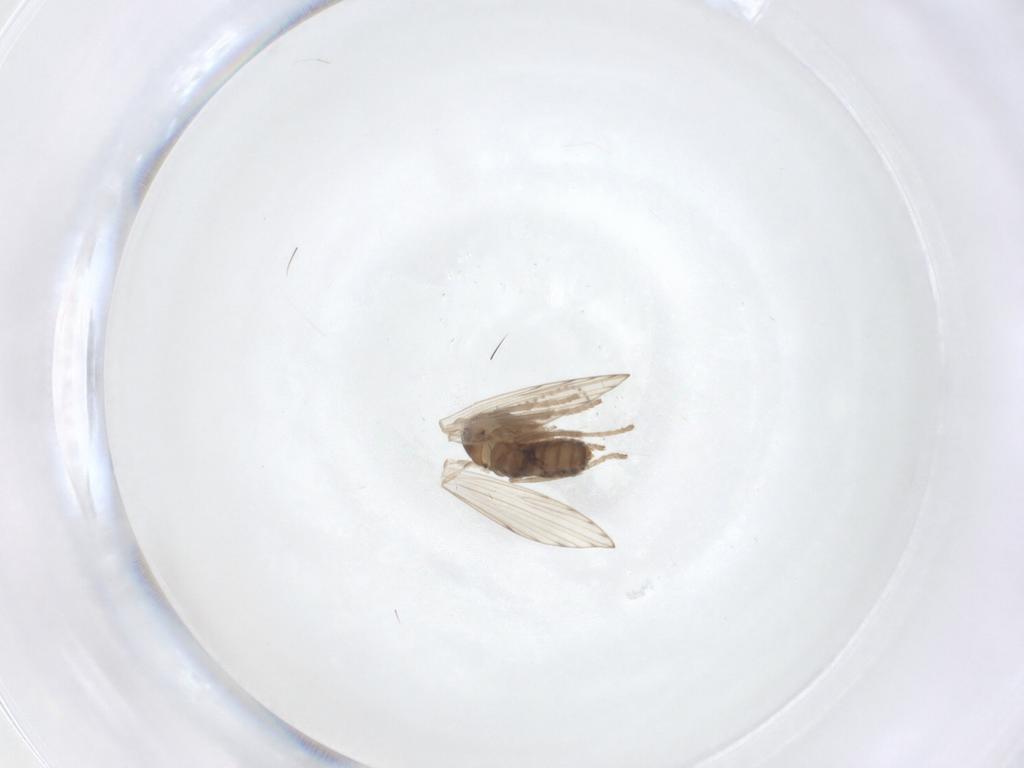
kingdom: Animalia
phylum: Arthropoda
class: Insecta
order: Diptera
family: Psychodidae
